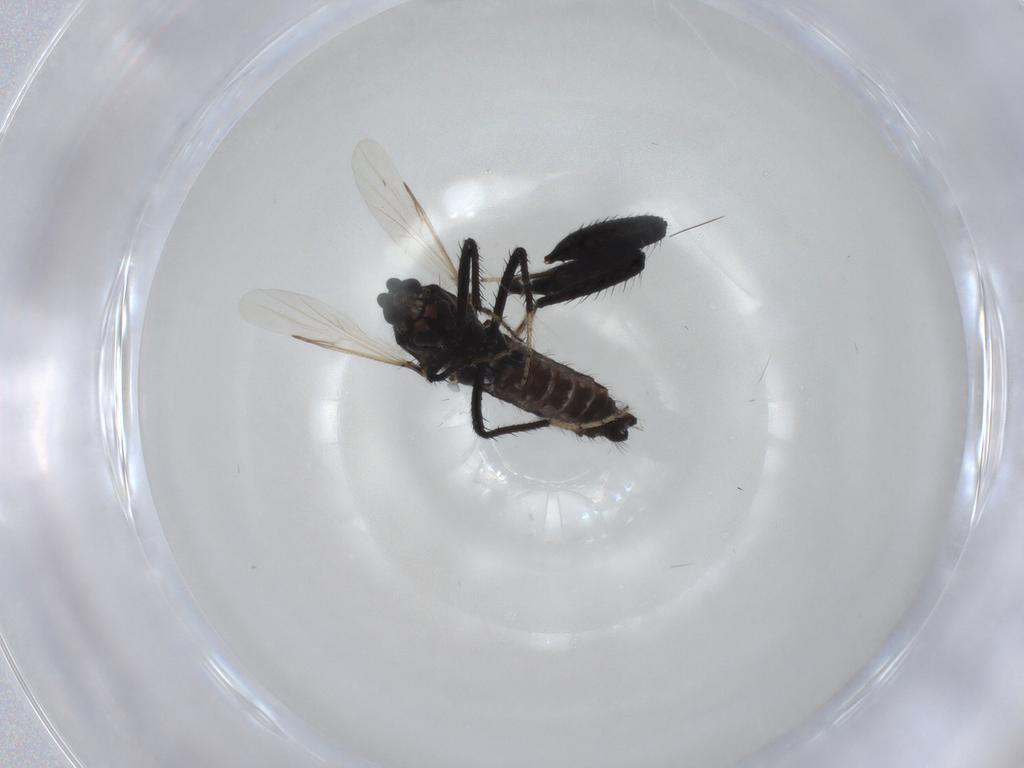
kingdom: Animalia
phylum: Arthropoda
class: Insecta
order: Diptera
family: Ceratopogonidae
